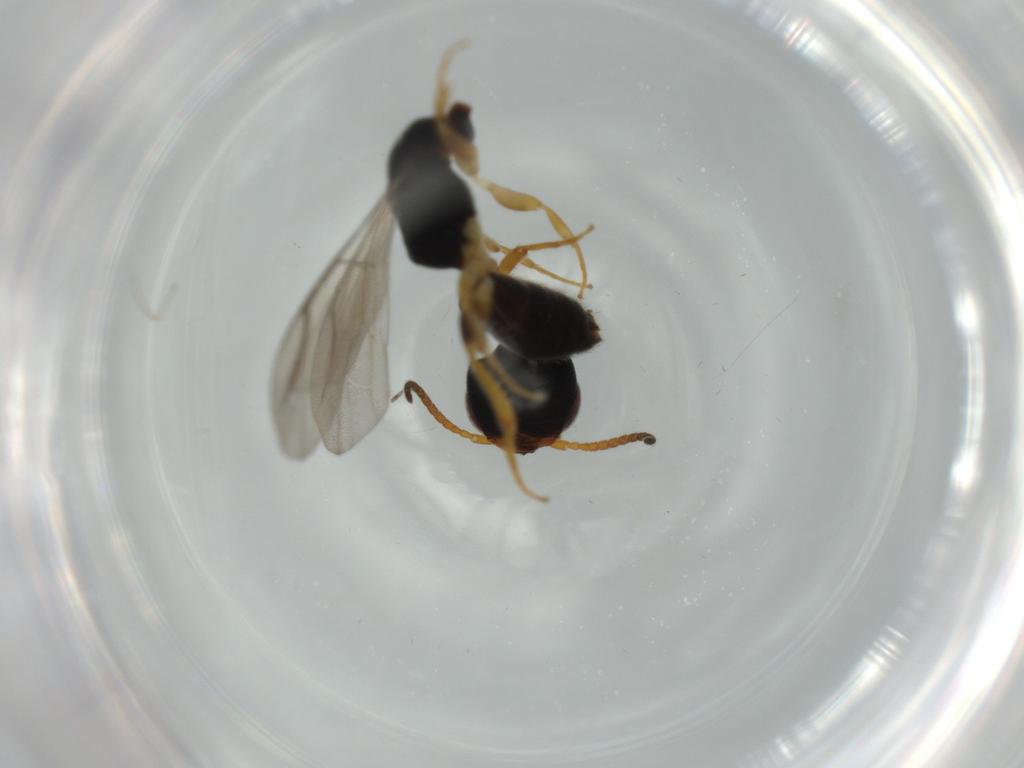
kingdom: Animalia
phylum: Arthropoda
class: Insecta
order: Hymenoptera
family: Bethylidae
